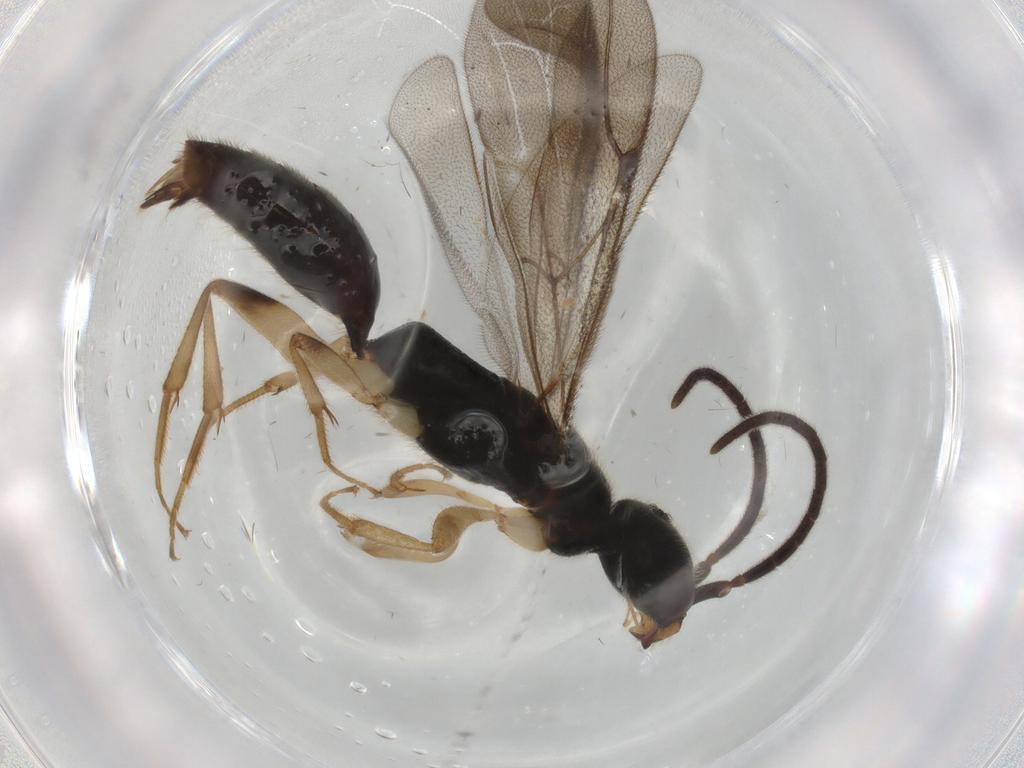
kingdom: Animalia
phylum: Arthropoda
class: Insecta
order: Hymenoptera
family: Bethylidae
